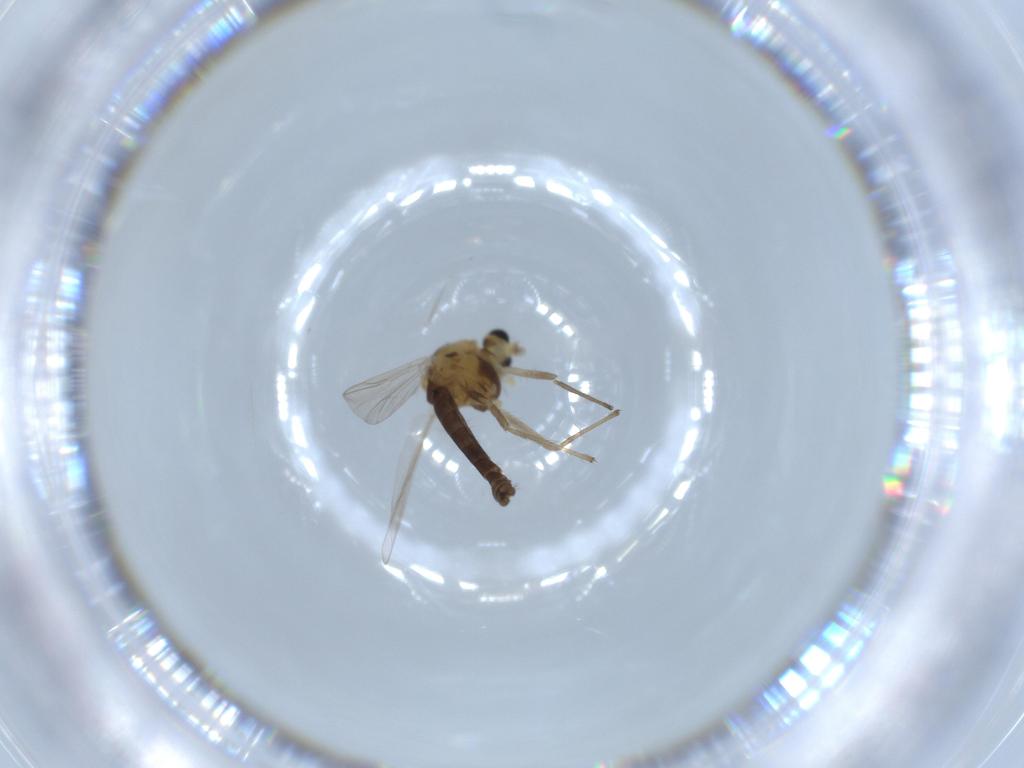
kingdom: Animalia
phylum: Arthropoda
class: Insecta
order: Diptera
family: Chironomidae
